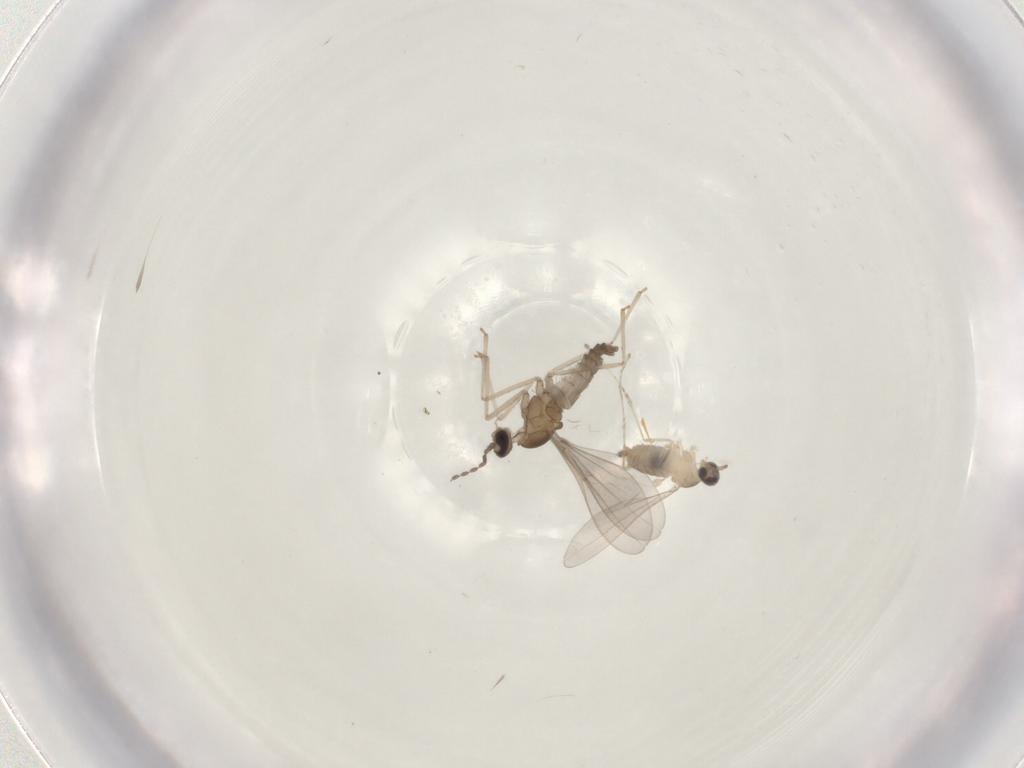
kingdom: Animalia
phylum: Arthropoda
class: Insecta
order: Diptera
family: Cecidomyiidae
